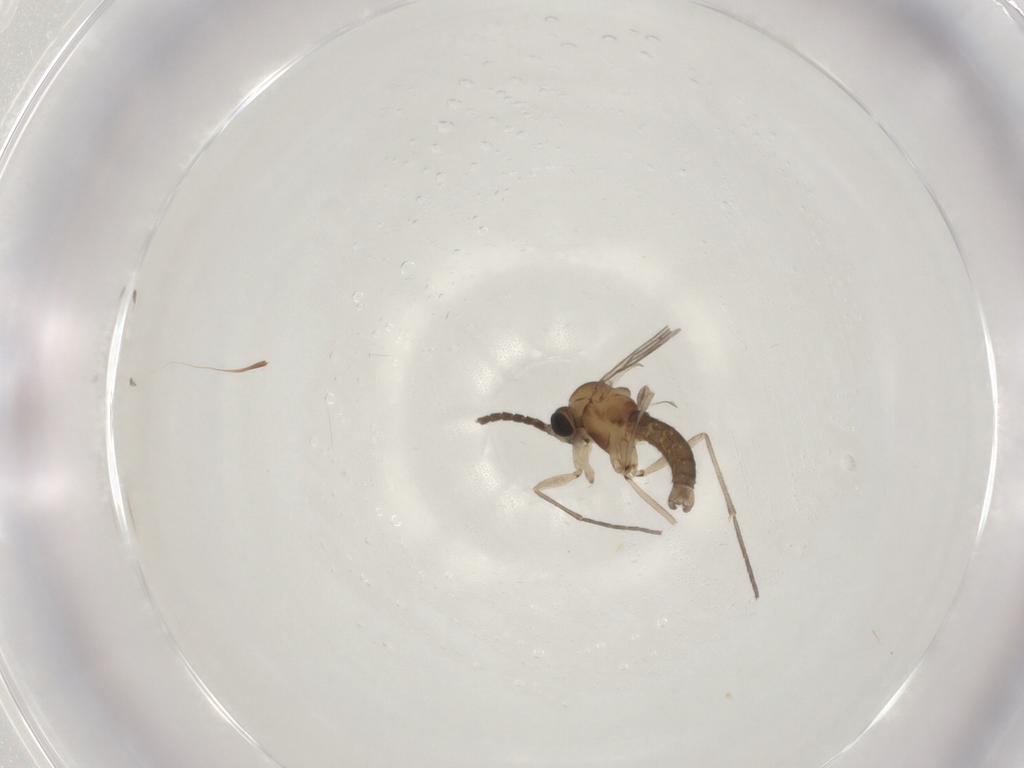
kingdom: Animalia
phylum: Arthropoda
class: Insecta
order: Diptera
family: Sciaridae
